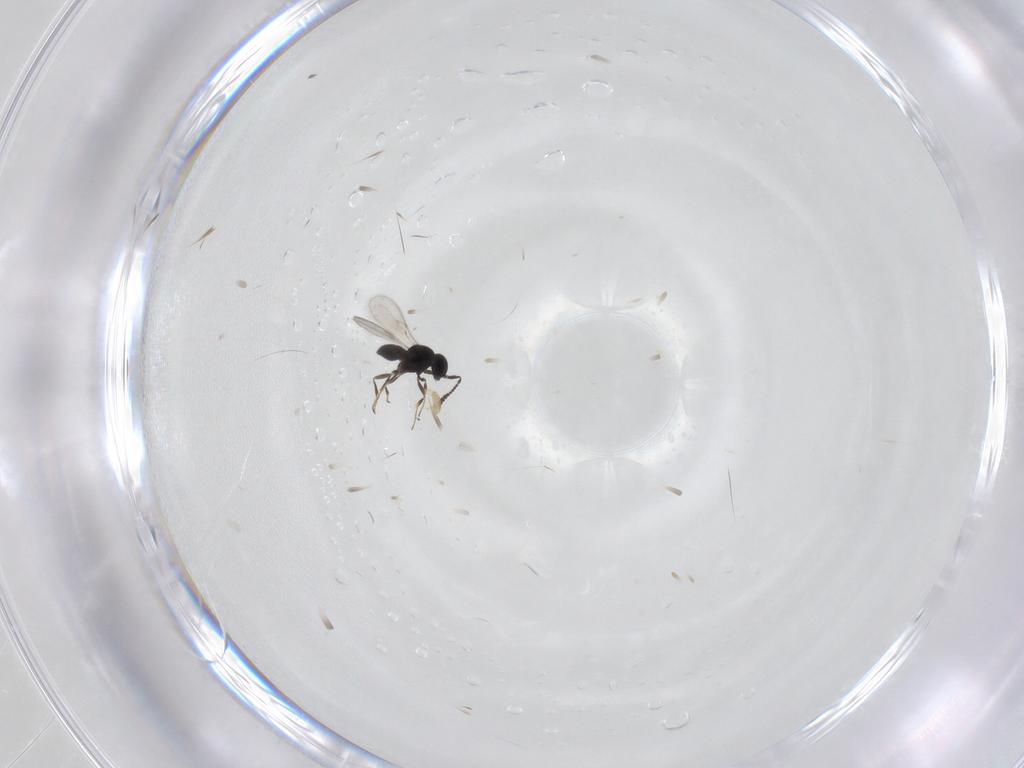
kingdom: Animalia
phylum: Arthropoda
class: Insecta
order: Hymenoptera
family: Scelionidae
